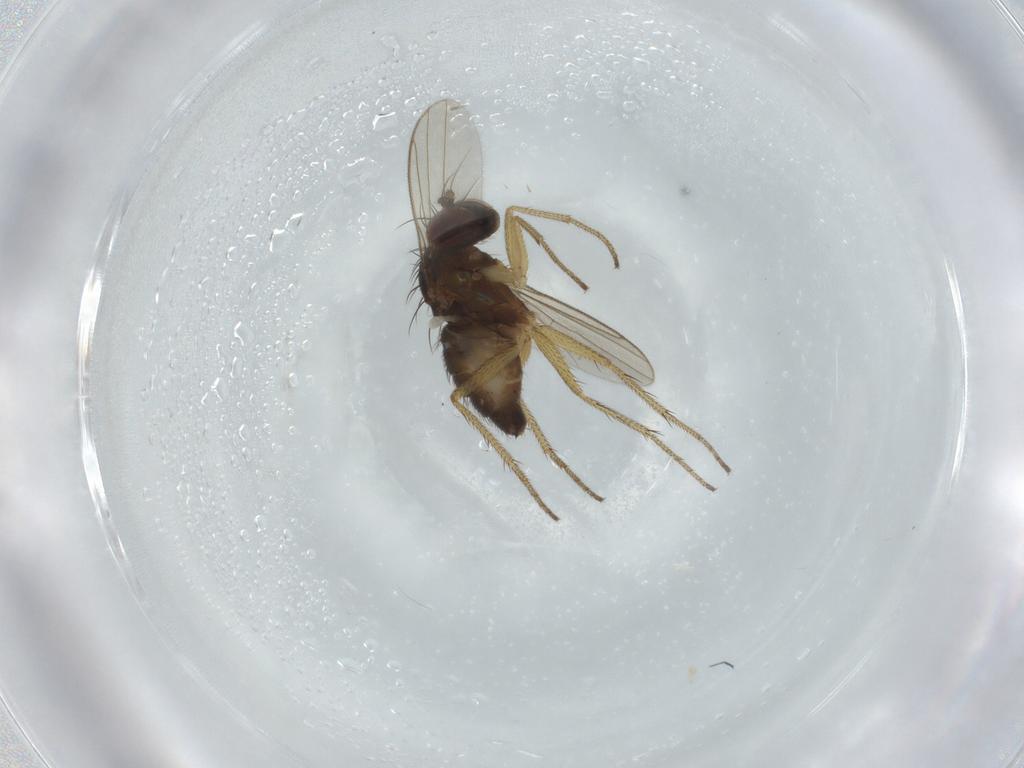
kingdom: Animalia
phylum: Arthropoda
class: Insecta
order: Diptera
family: Dolichopodidae
